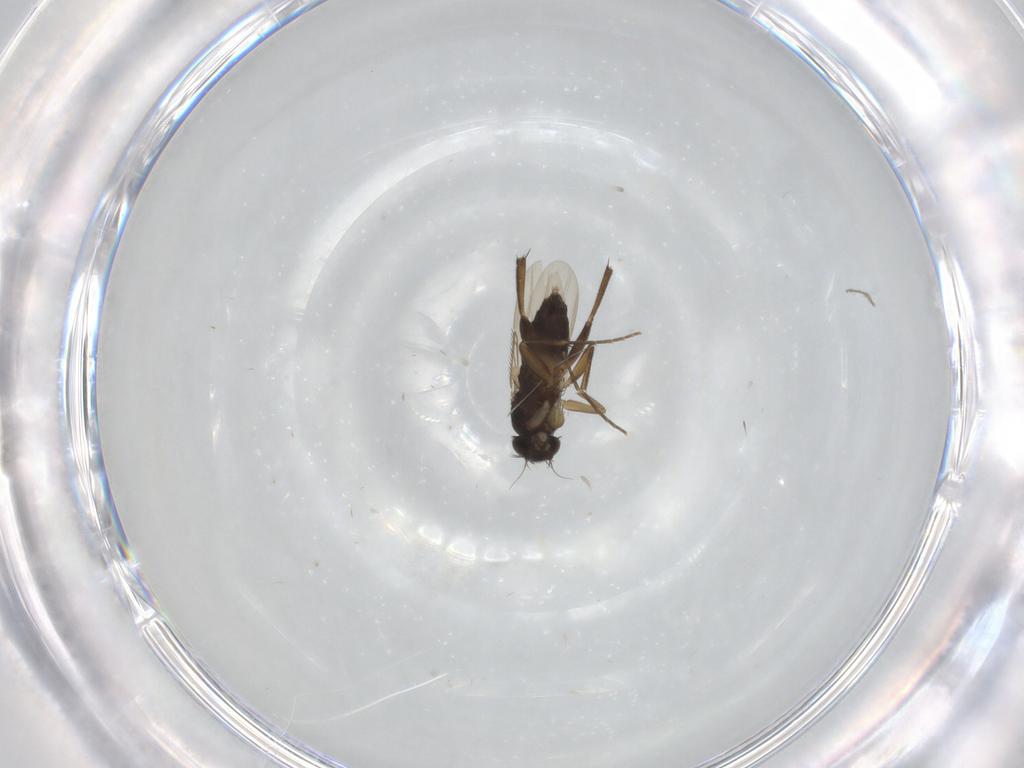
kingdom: Animalia
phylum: Arthropoda
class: Insecta
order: Diptera
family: Phoridae
